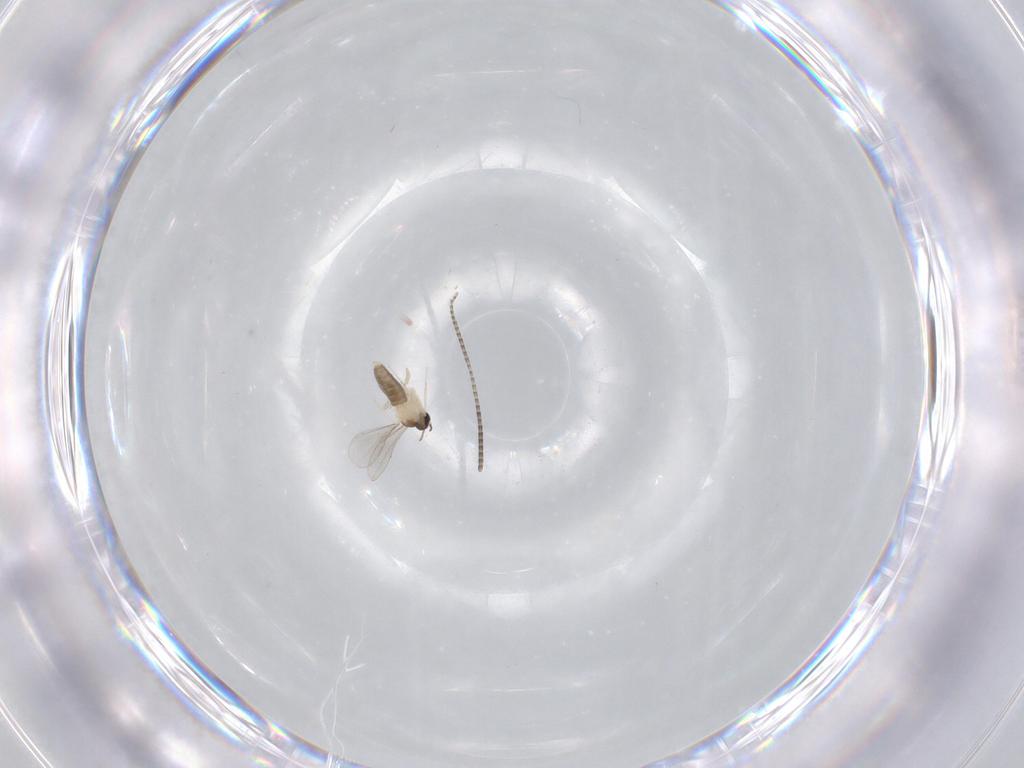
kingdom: Animalia
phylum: Arthropoda
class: Insecta
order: Diptera
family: Cecidomyiidae
